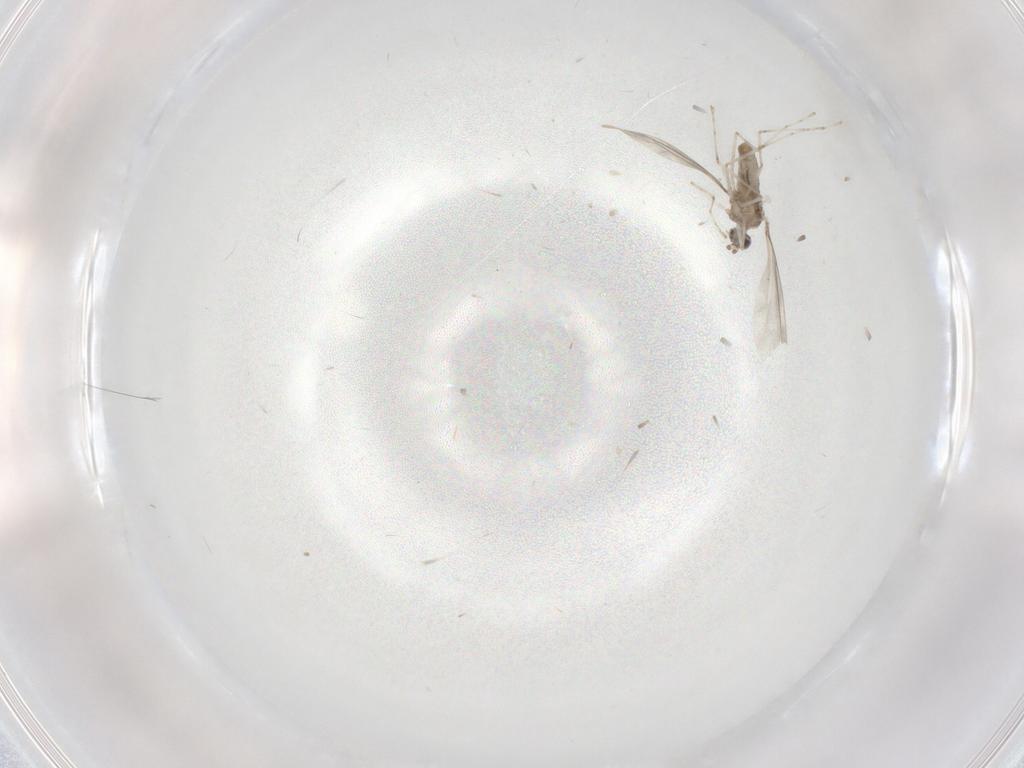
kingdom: Animalia
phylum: Arthropoda
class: Insecta
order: Diptera
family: Cecidomyiidae
